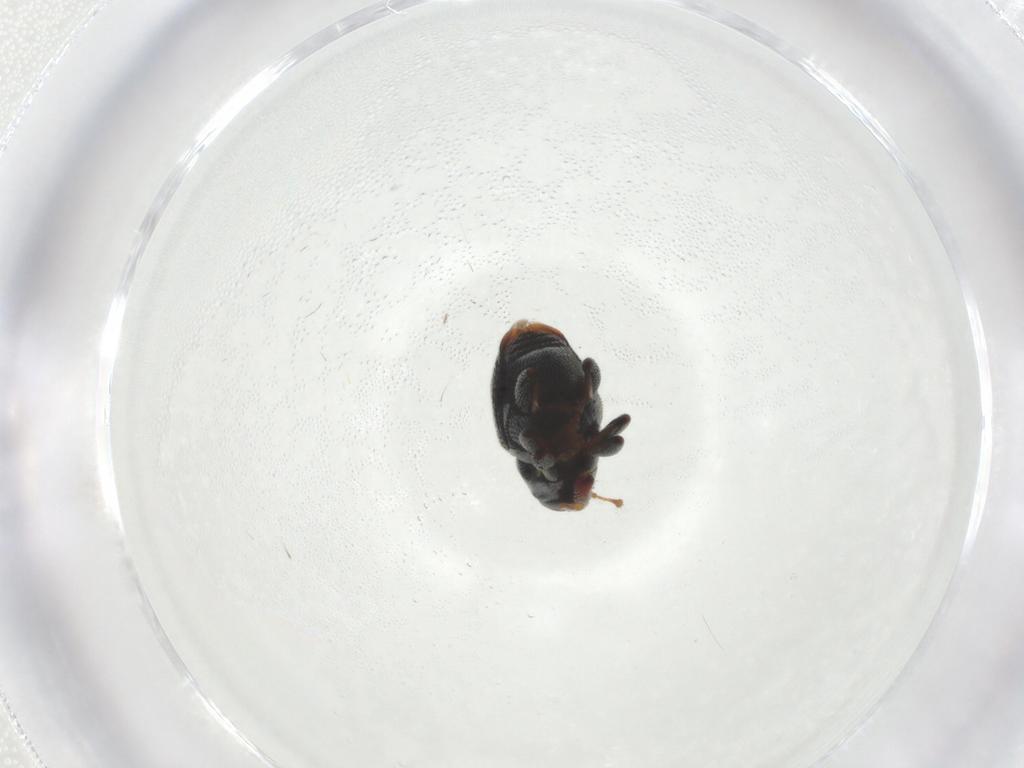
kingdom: Animalia
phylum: Arthropoda
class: Insecta
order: Coleoptera
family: Curculionidae
